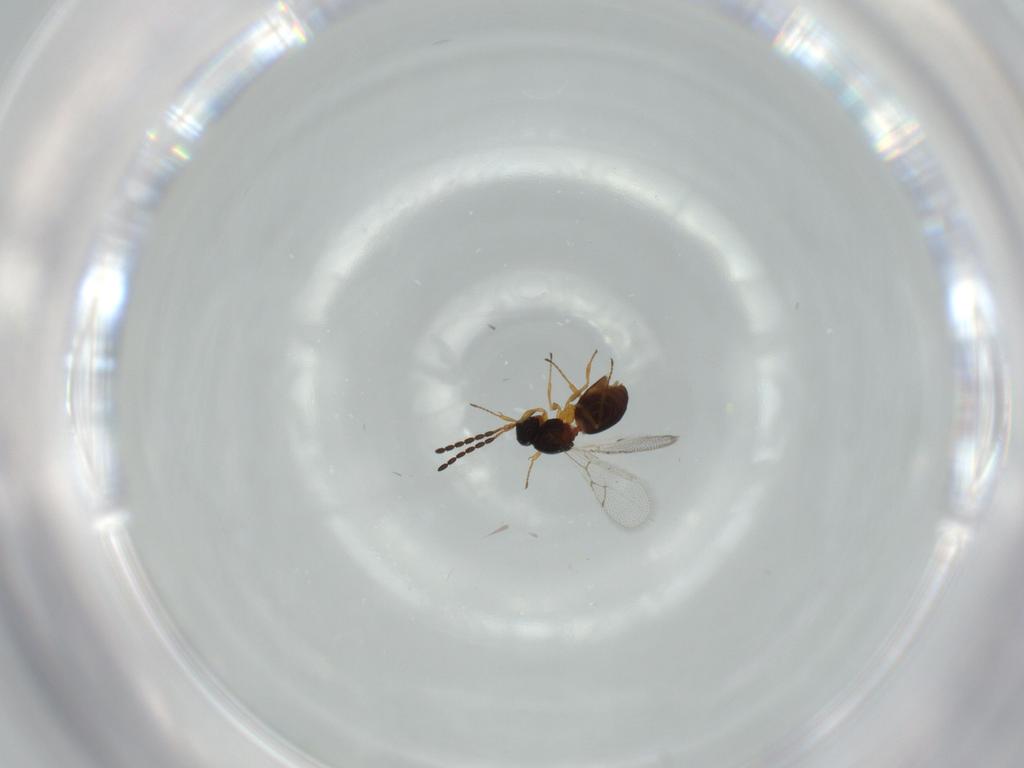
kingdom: Animalia
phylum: Arthropoda
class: Insecta
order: Hymenoptera
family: Figitidae
